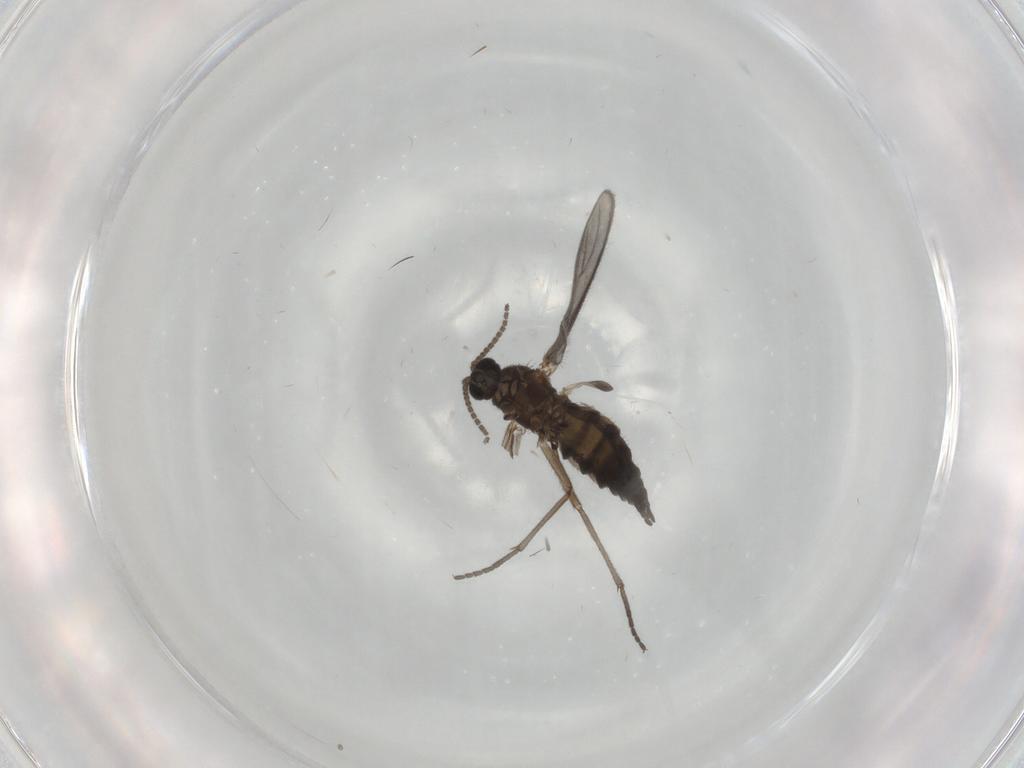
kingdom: Animalia
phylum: Arthropoda
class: Insecta
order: Diptera
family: Sciaridae
